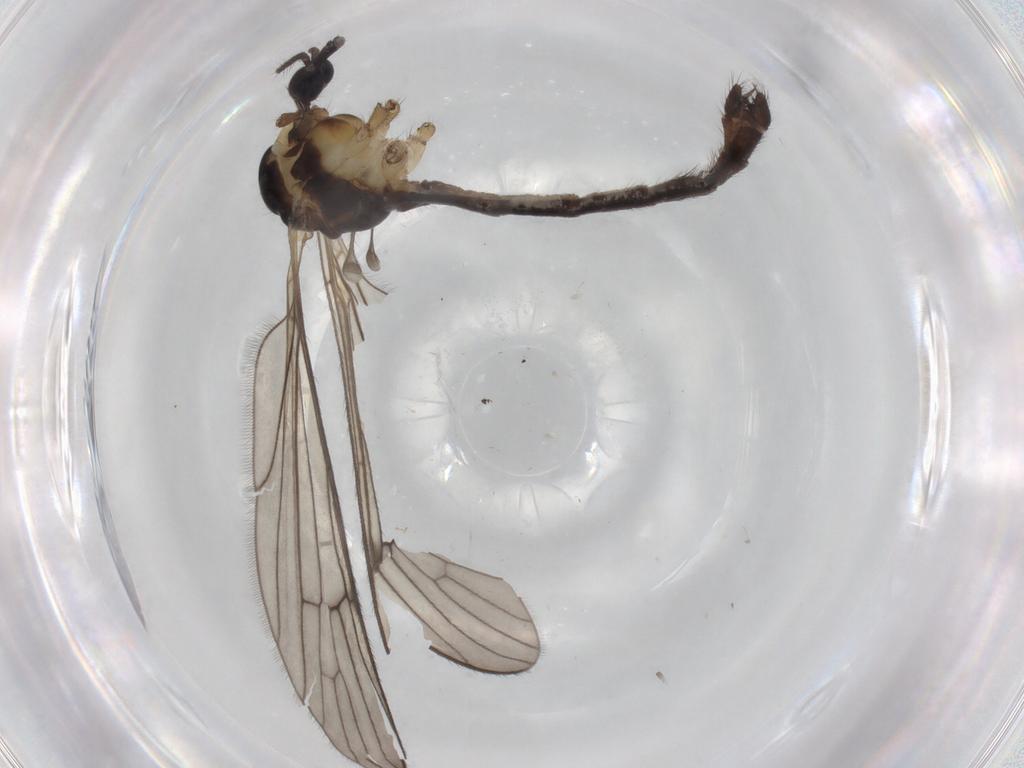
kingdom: Animalia
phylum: Arthropoda
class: Insecta
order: Diptera
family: Limoniidae
